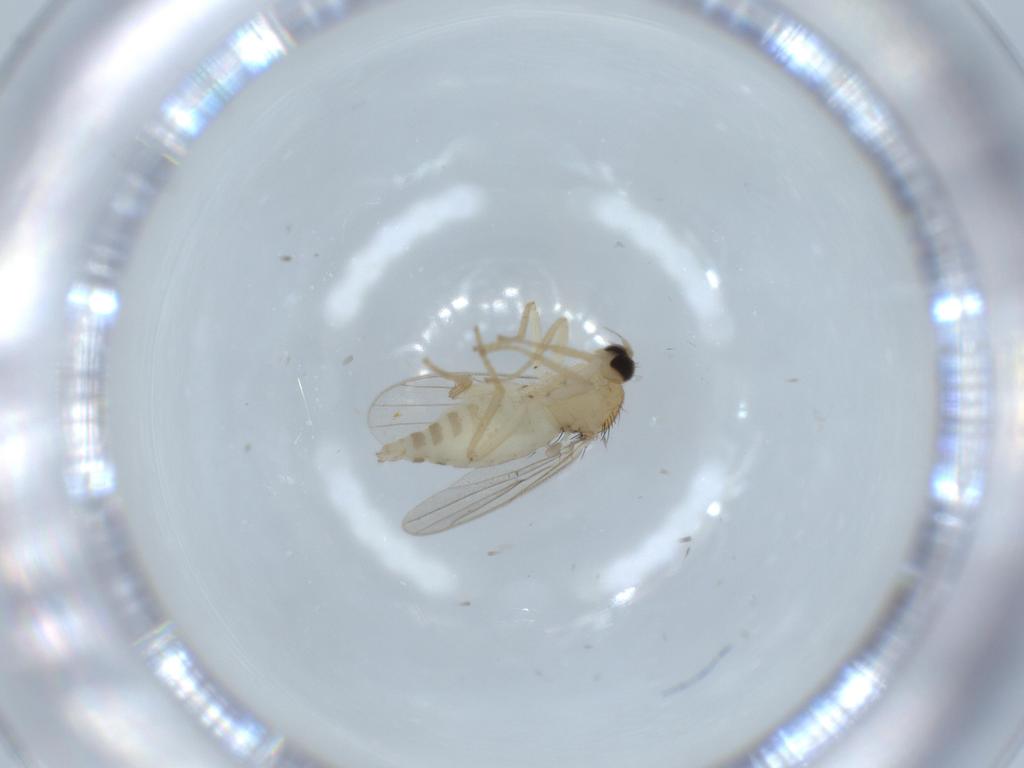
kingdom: Animalia
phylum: Arthropoda
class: Insecta
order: Diptera
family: Hybotidae
